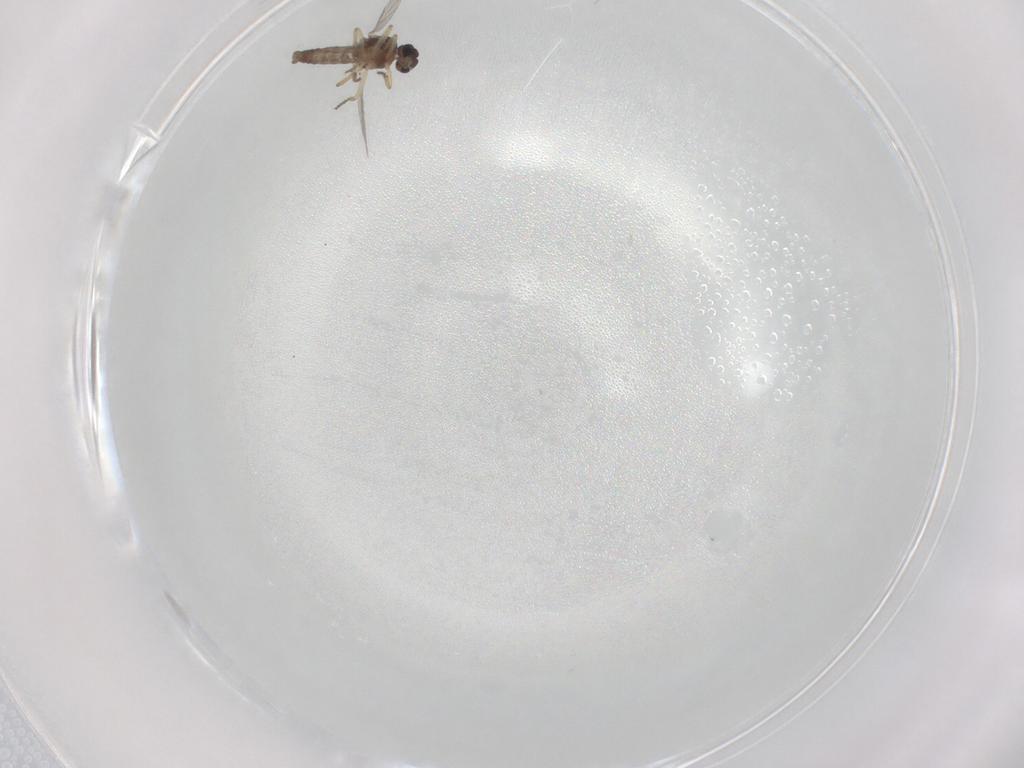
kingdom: Animalia
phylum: Arthropoda
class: Insecta
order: Diptera
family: Ceratopogonidae
